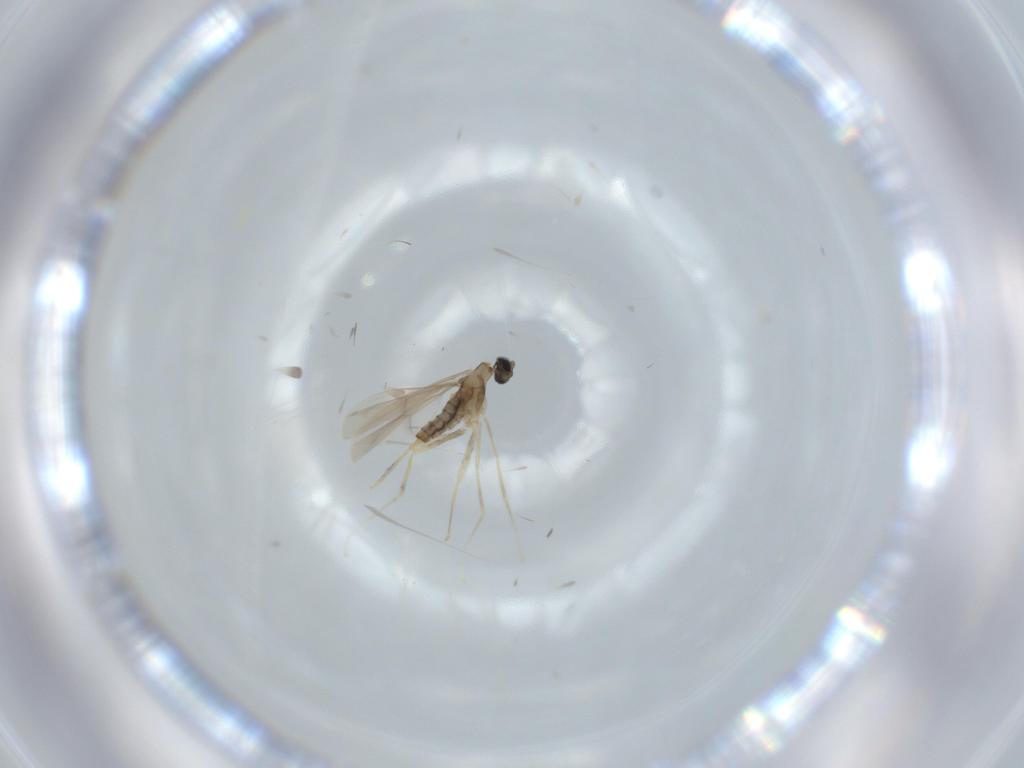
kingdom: Animalia
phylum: Arthropoda
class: Insecta
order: Diptera
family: Cecidomyiidae
